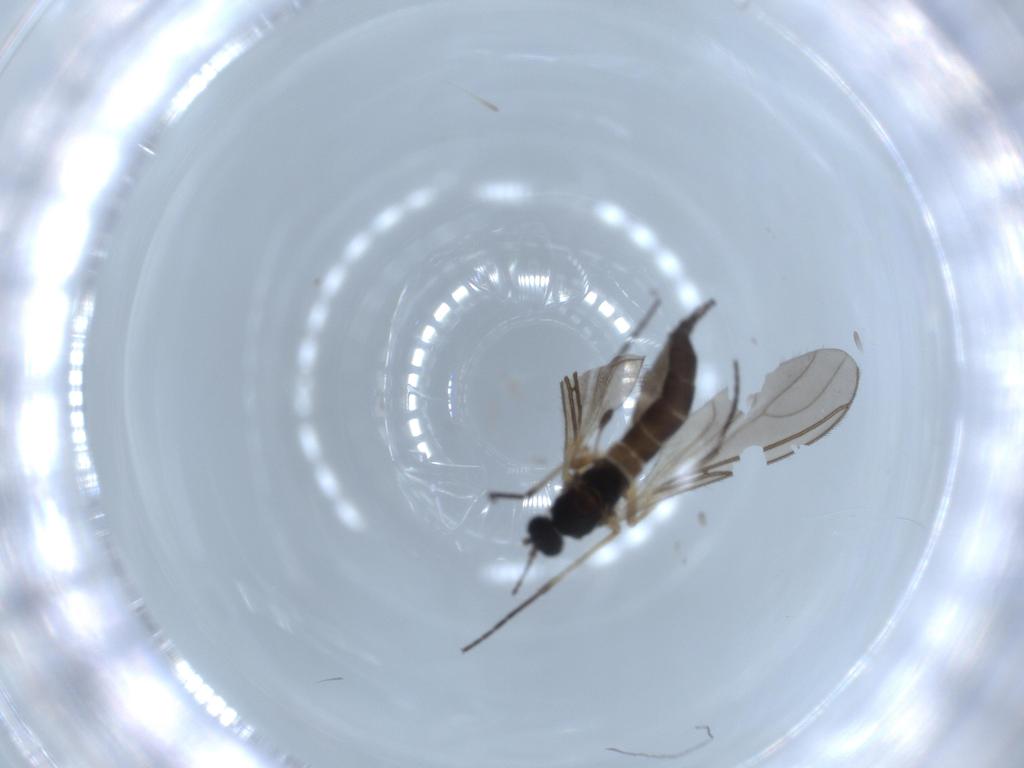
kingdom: Animalia
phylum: Arthropoda
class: Insecta
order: Diptera
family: Sciaridae
